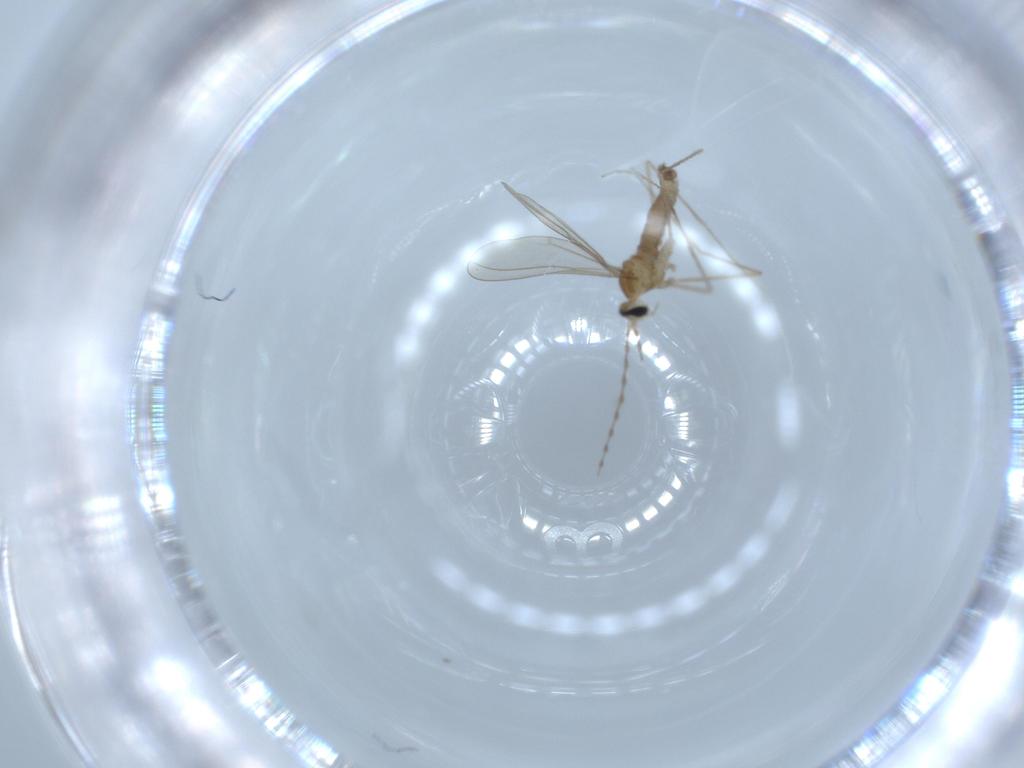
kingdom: Animalia
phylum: Arthropoda
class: Insecta
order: Diptera
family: Cecidomyiidae
